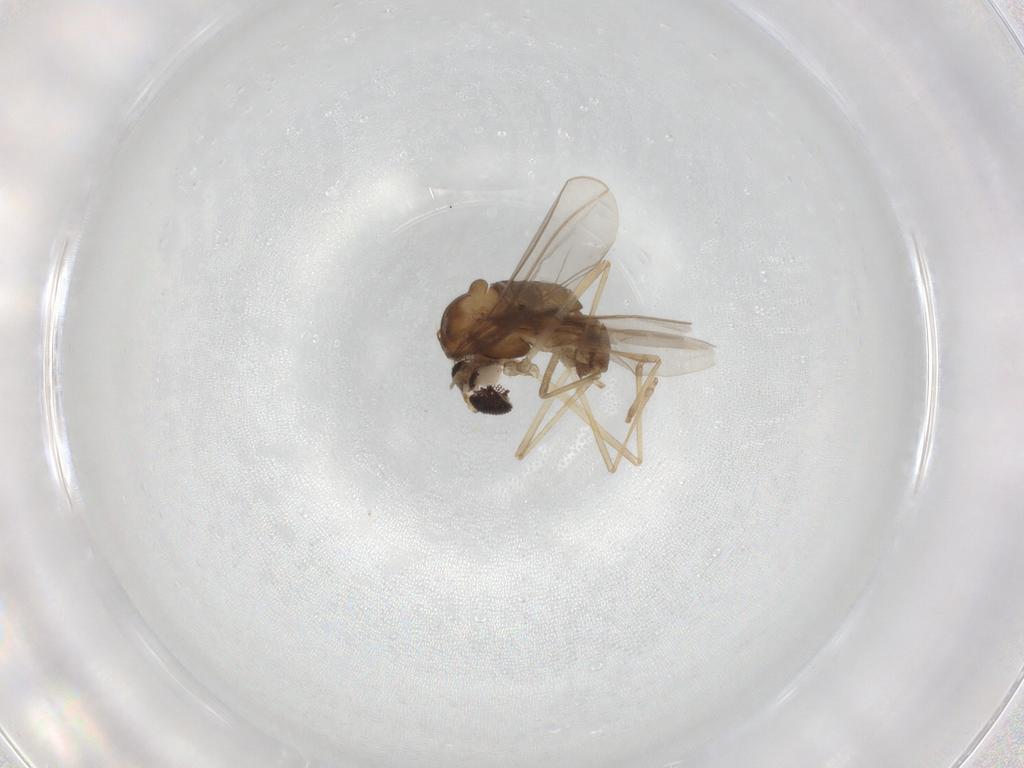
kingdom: Animalia
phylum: Arthropoda
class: Insecta
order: Diptera
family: Cecidomyiidae
